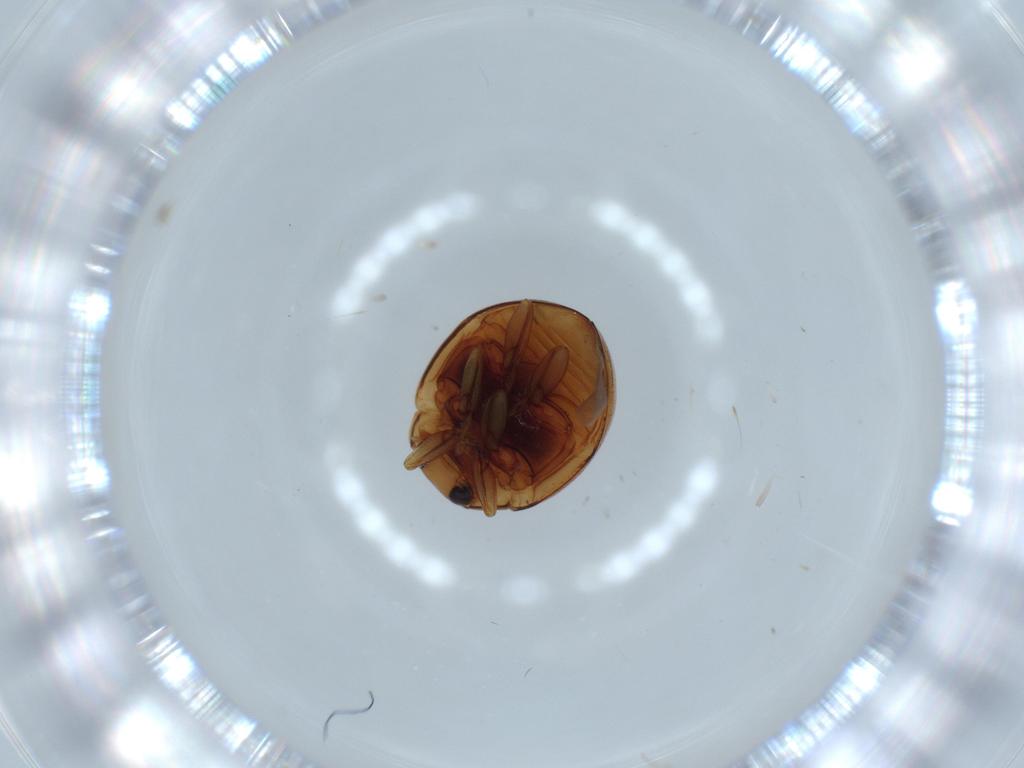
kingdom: Animalia
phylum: Arthropoda
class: Insecta
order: Coleoptera
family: Coccinellidae
